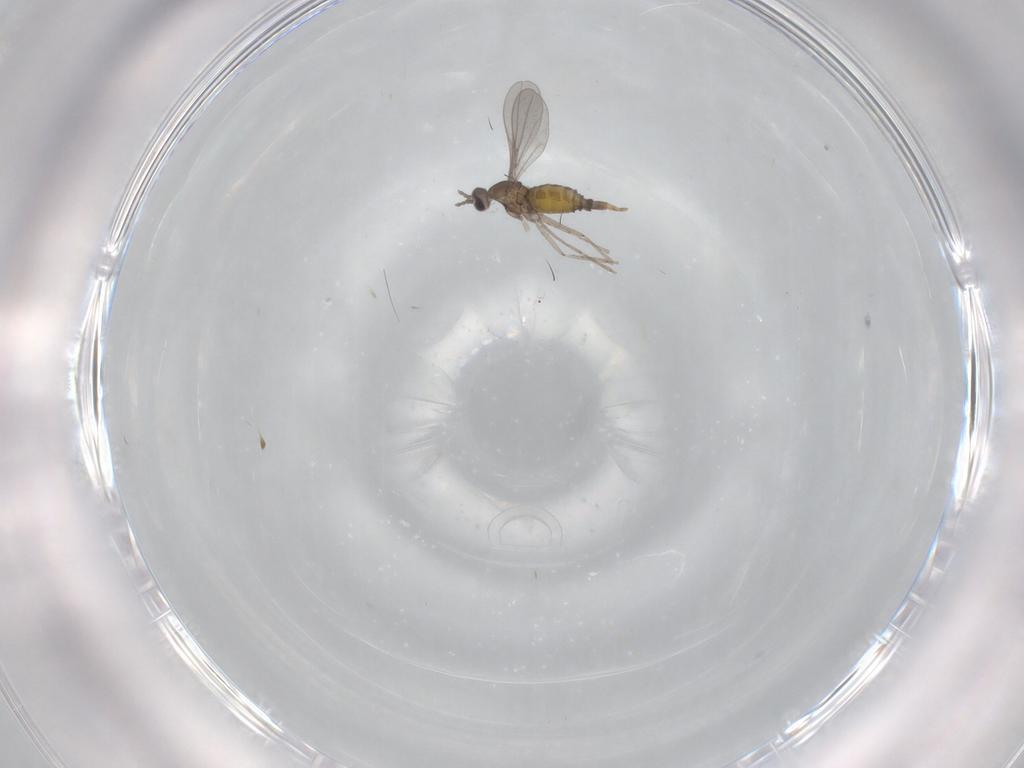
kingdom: Animalia
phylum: Arthropoda
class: Insecta
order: Diptera
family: Cecidomyiidae
